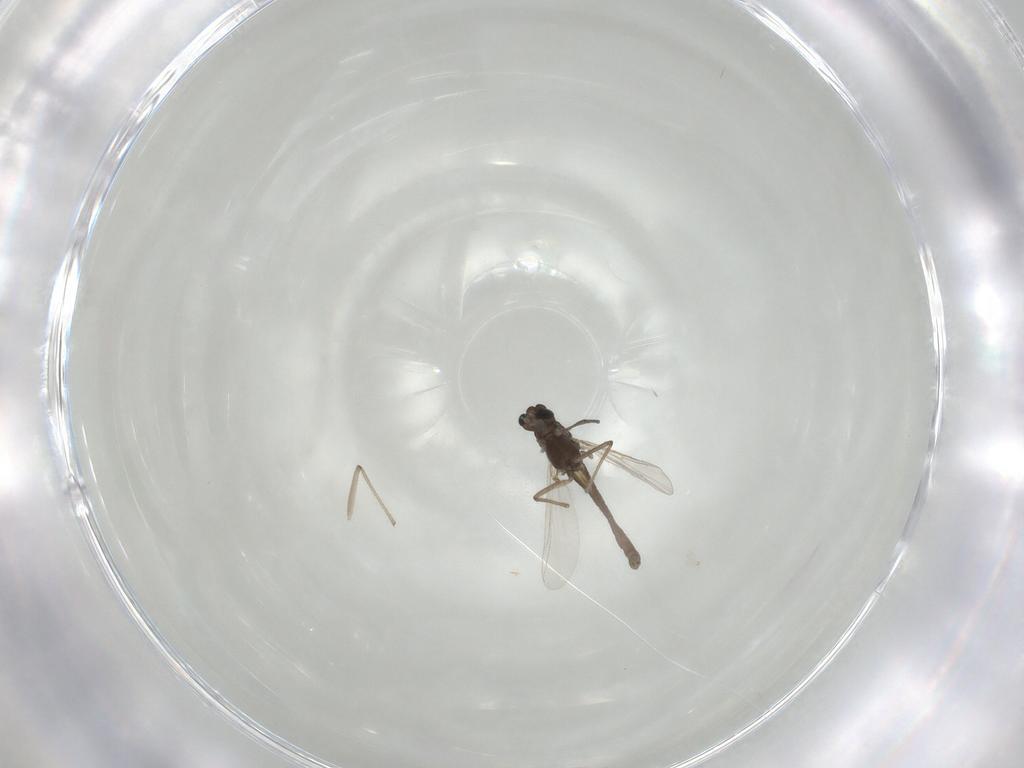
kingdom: Animalia
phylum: Arthropoda
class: Insecta
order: Diptera
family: Chironomidae
